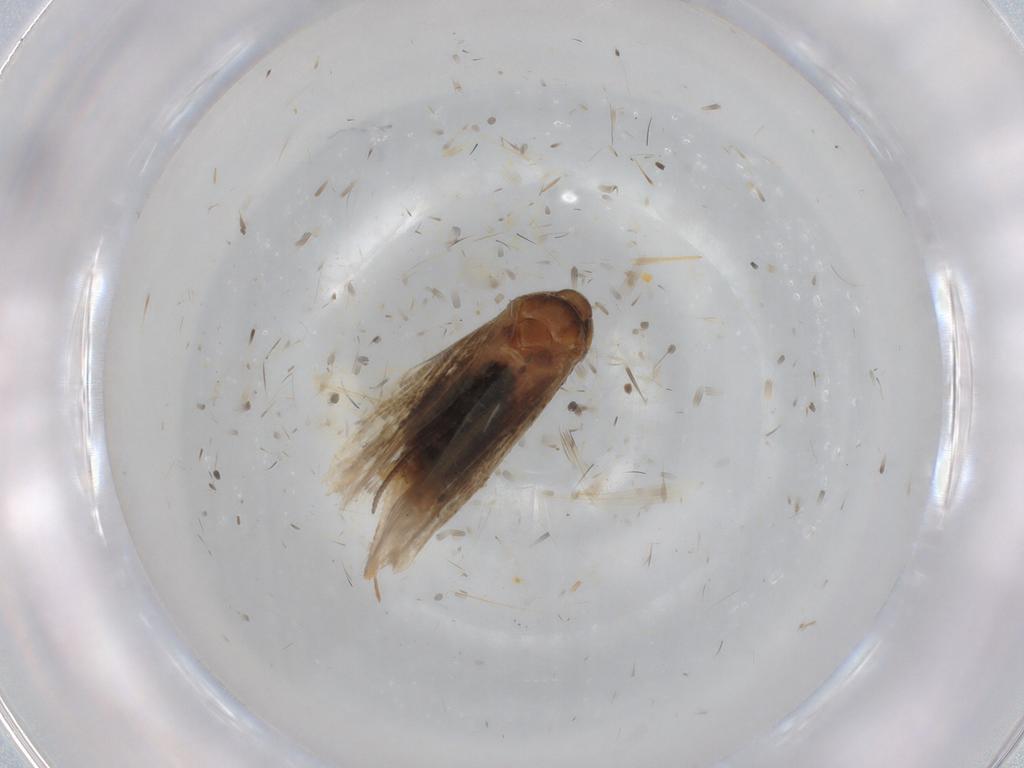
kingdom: Animalia
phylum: Arthropoda
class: Insecta
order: Lepidoptera
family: Tortricidae
